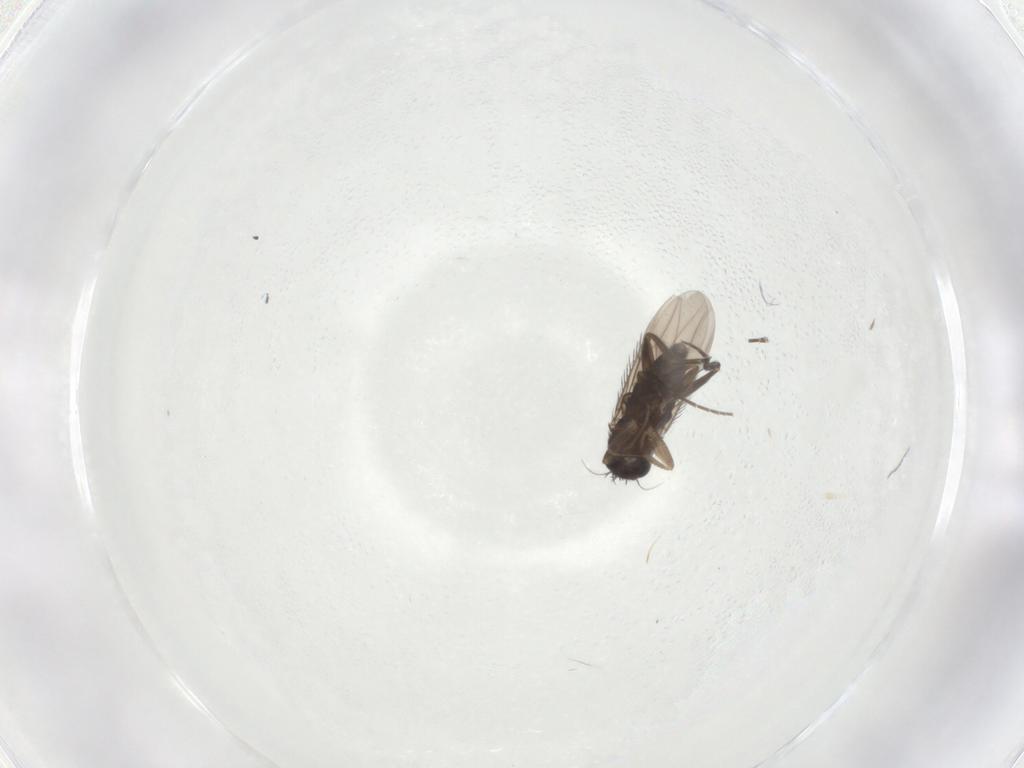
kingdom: Animalia
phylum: Arthropoda
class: Insecta
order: Diptera
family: Phoridae
